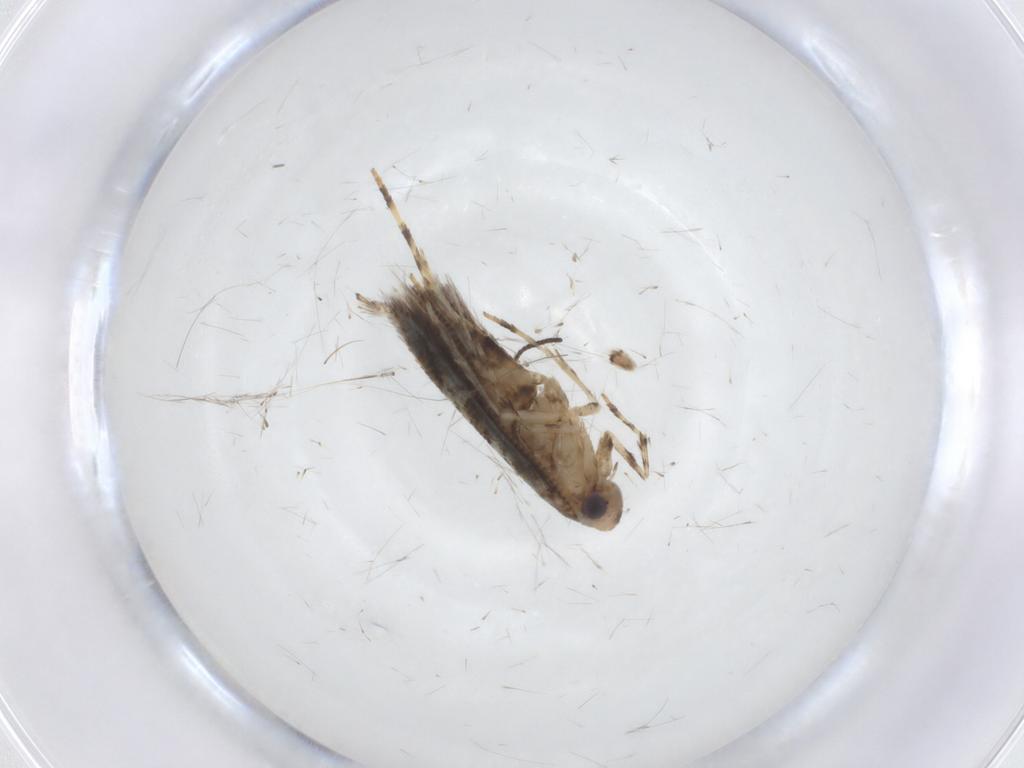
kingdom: Animalia
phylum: Arthropoda
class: Insecta
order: Lepidoptera
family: Gracillariidae
